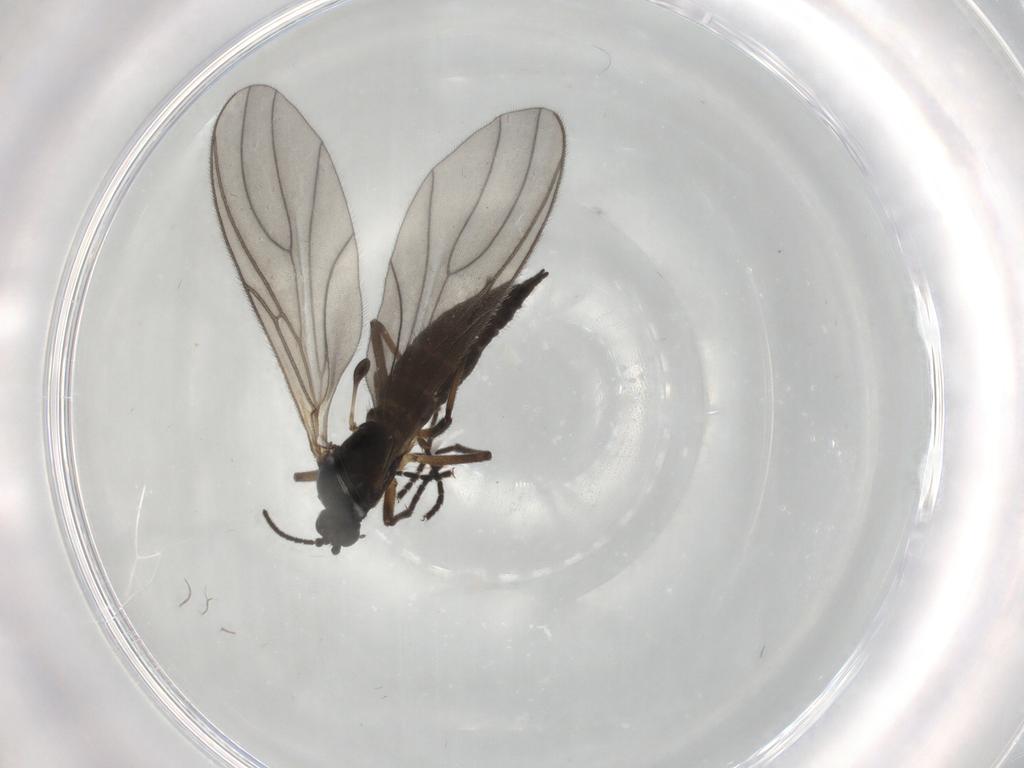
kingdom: Animalia
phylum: Arthropoda
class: Insecta
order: Diptera
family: Sciaridae
